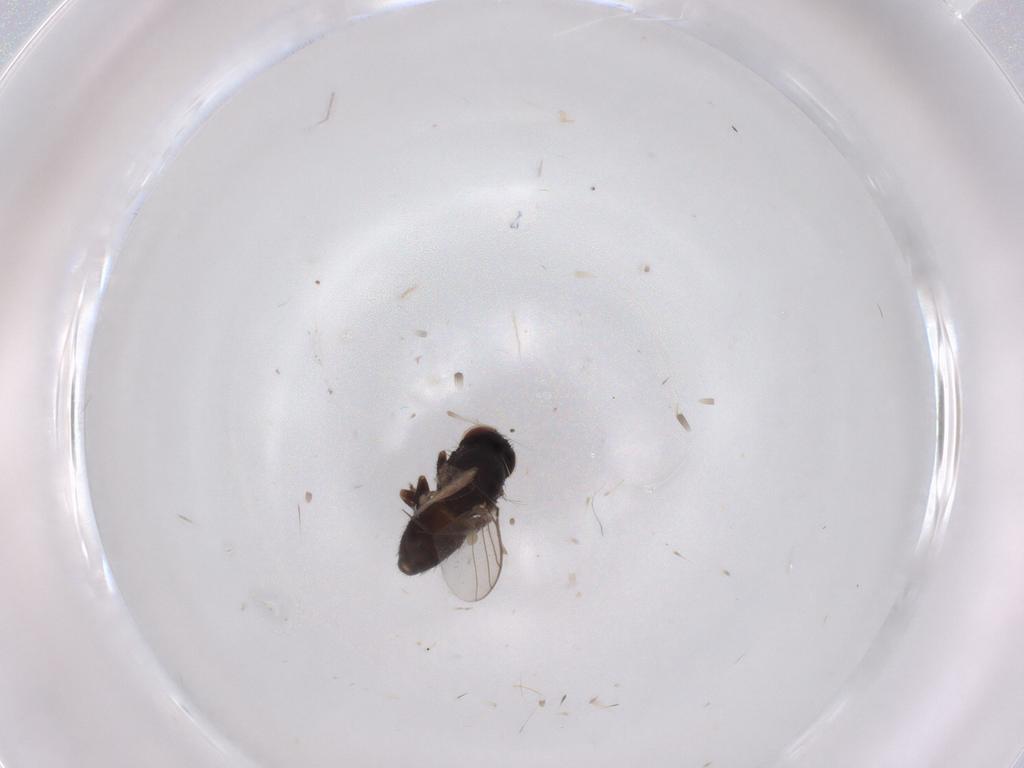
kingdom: Animalia
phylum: Arthropoda
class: Insecta
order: Diptera
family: Chloropidae
